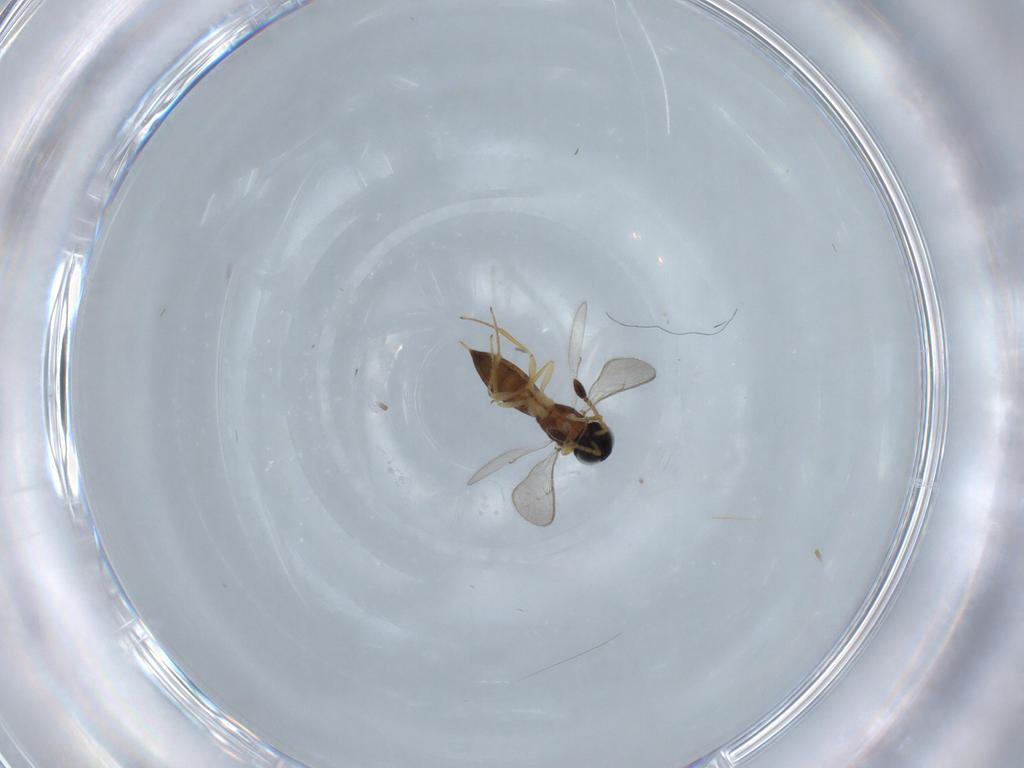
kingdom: Animalia
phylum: Arthropoda
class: Insecta
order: Hymenoptera
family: Scelionidae
